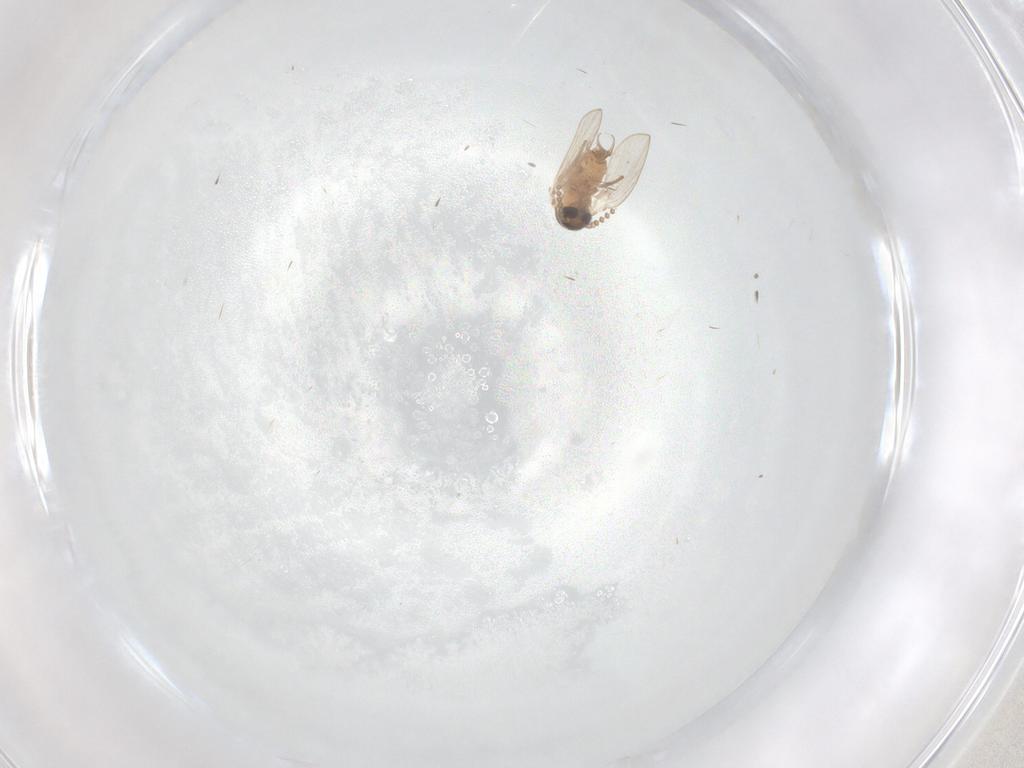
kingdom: Animalia
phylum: Arthropoda
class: Insecta
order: Diptera
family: Psychodidae
